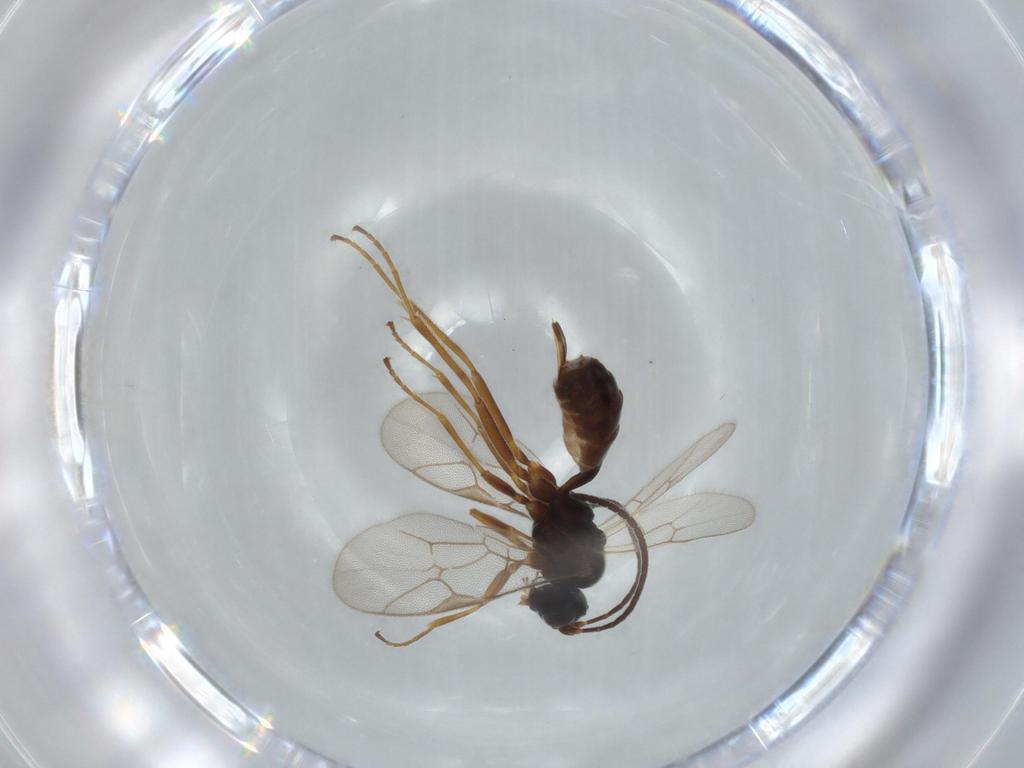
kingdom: Animalia
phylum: Arthropoda
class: Insecta
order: Hymenoptera
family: Ichneumonidae
